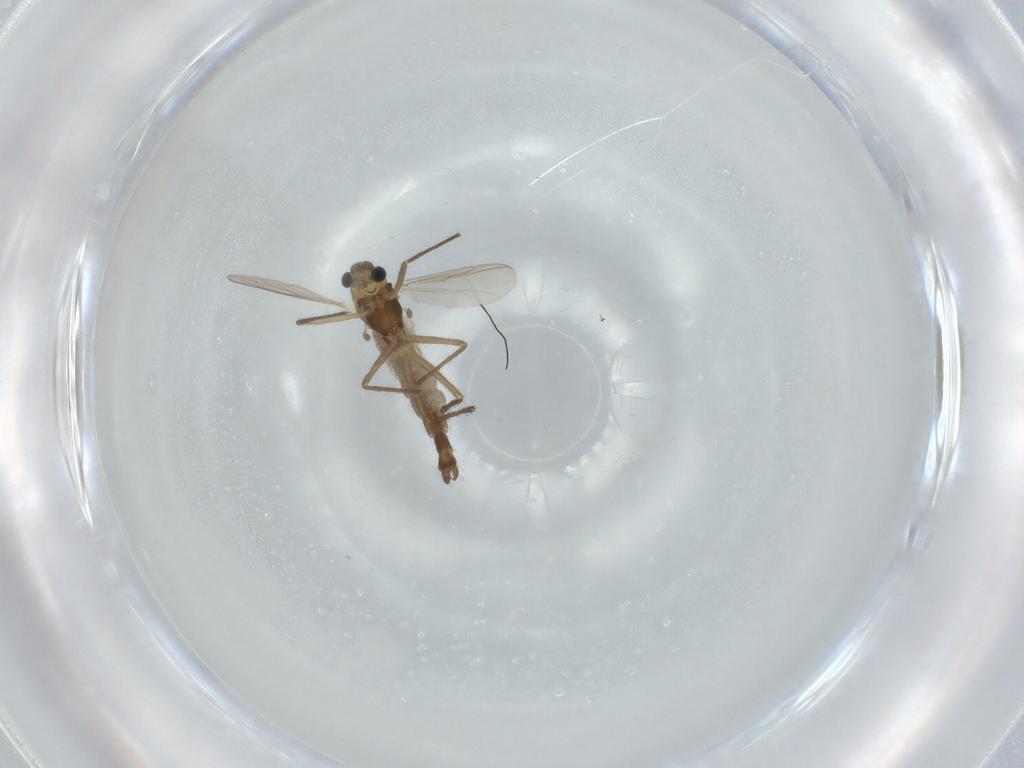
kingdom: Animalia
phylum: Arthropoda
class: Insecta
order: Diptera
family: Chironomidae
